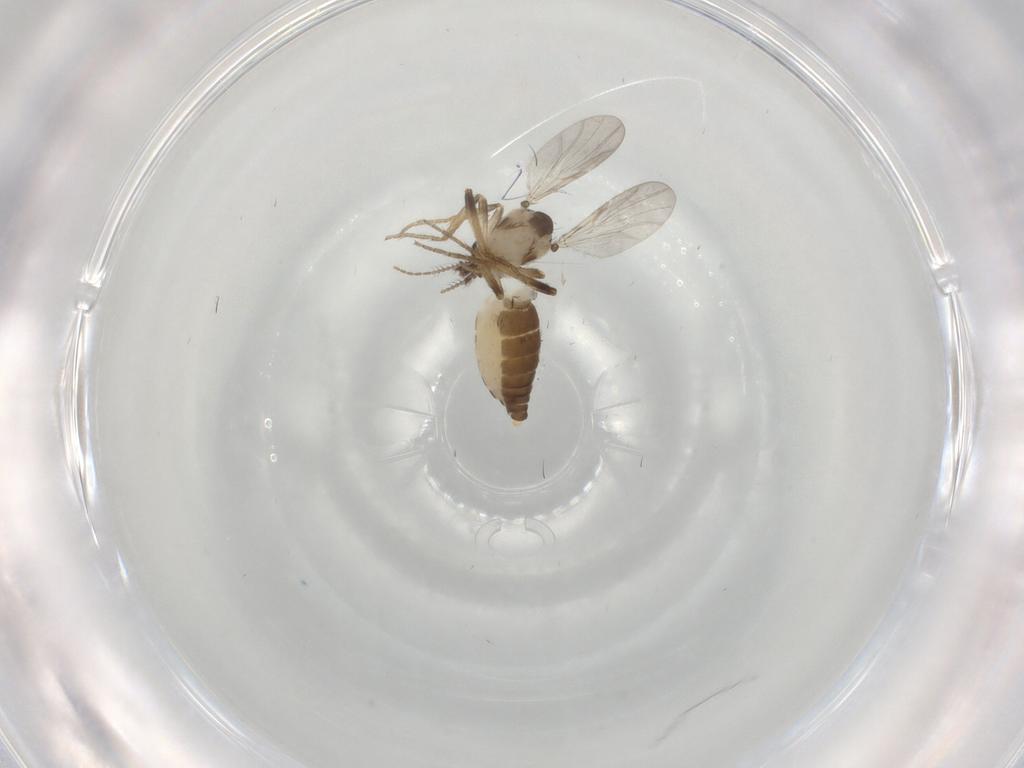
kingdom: Animalia
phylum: Arthropoda
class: Insecta
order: Diptera
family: Ceratopogonidae
